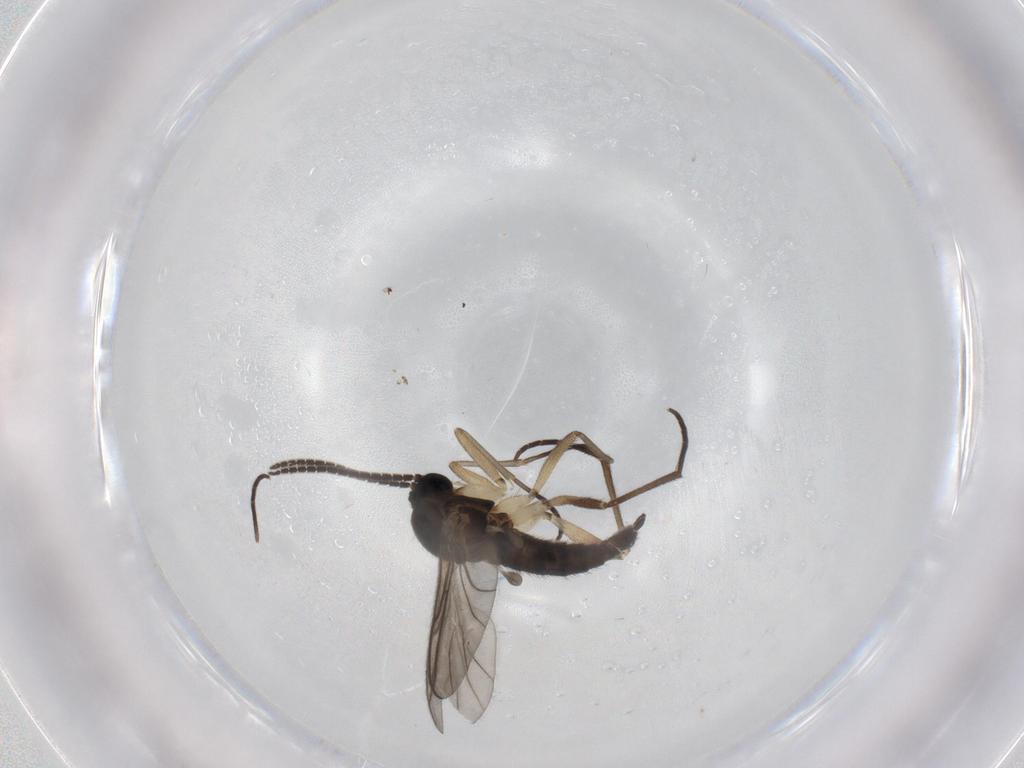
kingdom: Animalia
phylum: Arthropoda
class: Insecta
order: Diptera
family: Sciaridae
